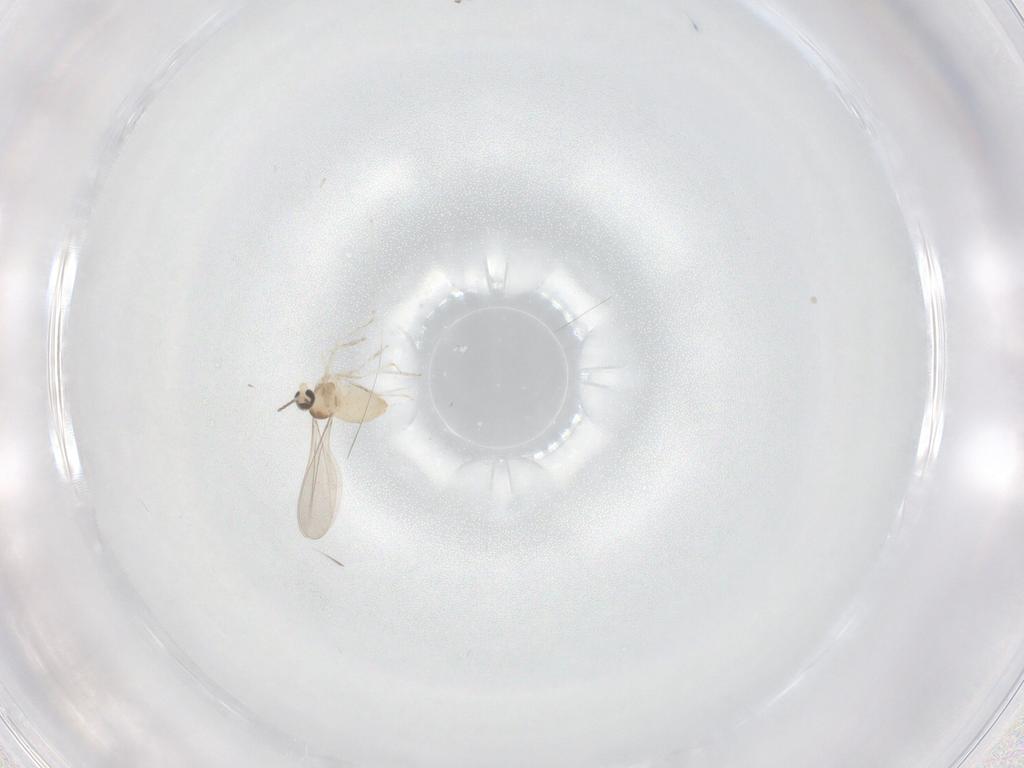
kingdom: Animalia
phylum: Arthropoda
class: Insecta
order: Diptera
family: Cecidomyiidae
